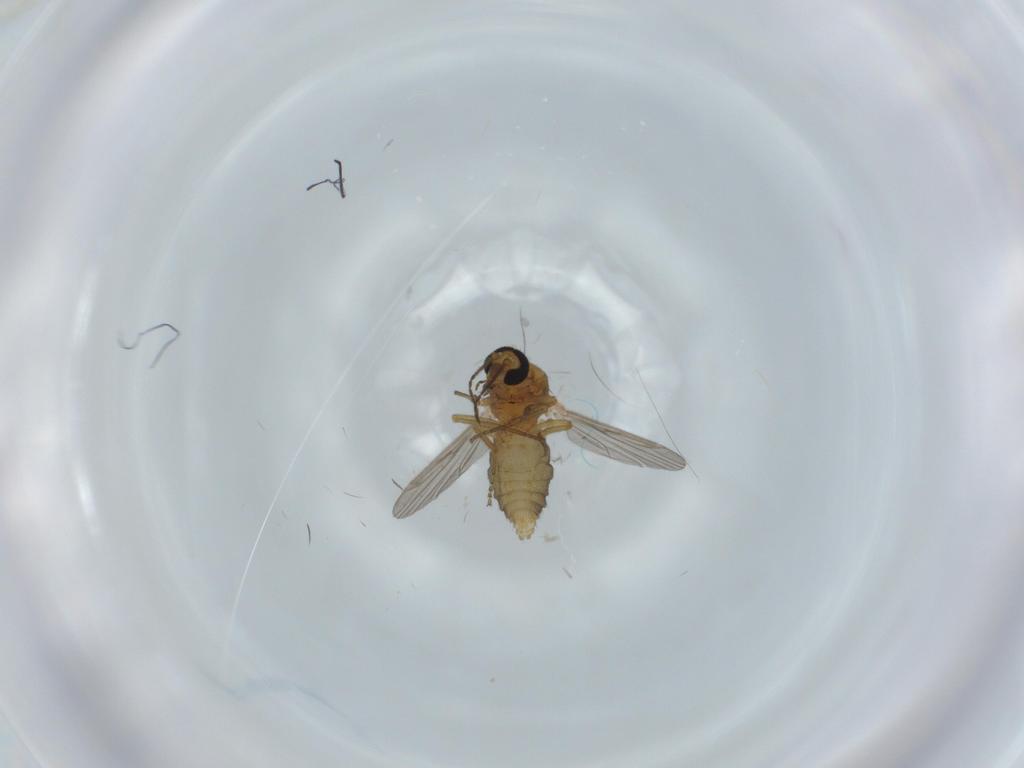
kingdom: Animalia
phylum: Arthropoda
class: Insecta
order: Diptera
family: Ceratopogonidae
